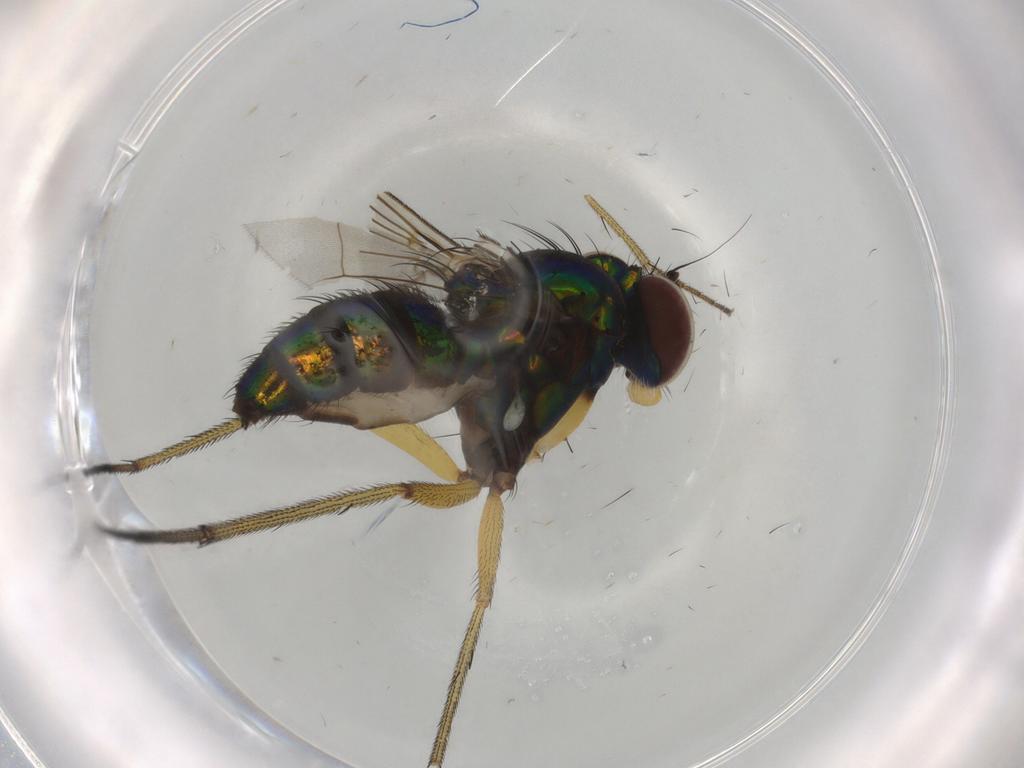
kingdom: Animalia
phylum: Arthropoda
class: Insecta
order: Diptera
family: Dolichopodidae
